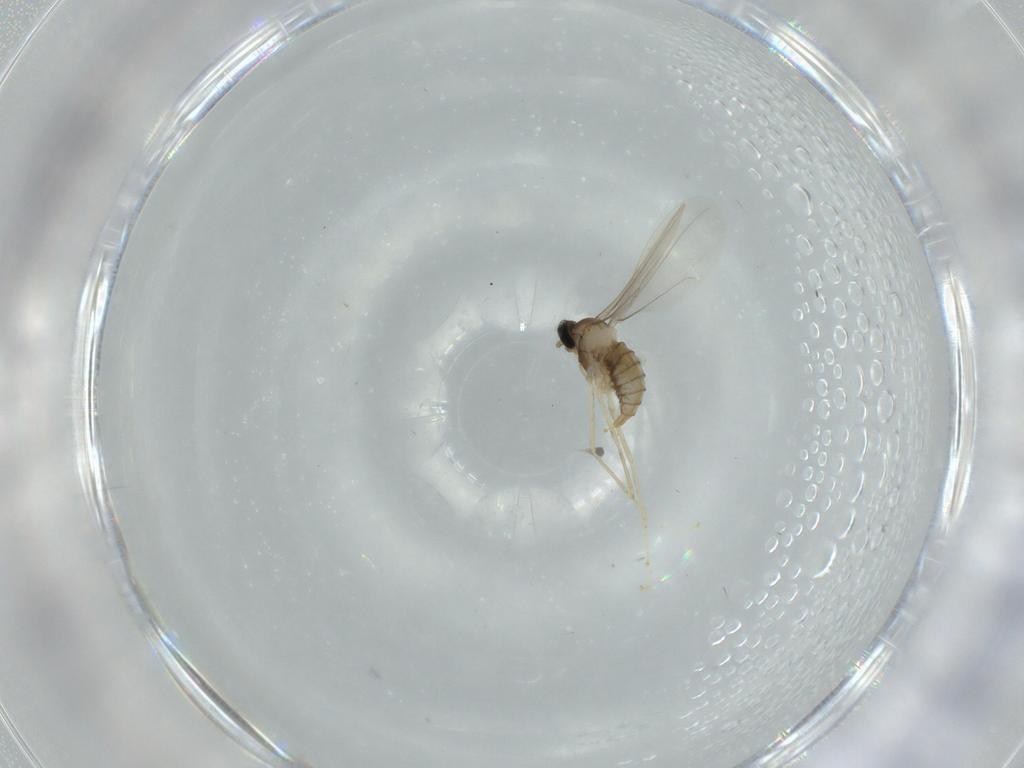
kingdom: Animalia
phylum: Arthropoda
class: Insecta
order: Diptera
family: Cecidomyiidae
